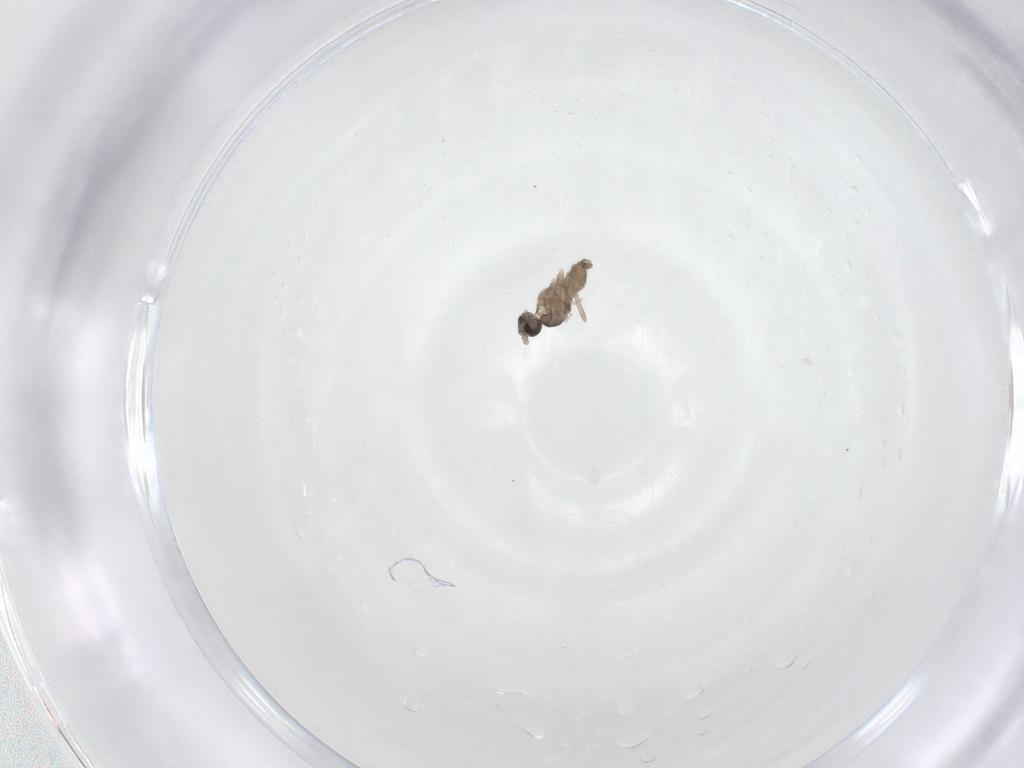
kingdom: Animalia
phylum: Arthropoda
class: Insecta
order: Diptera
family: Cecidomyiidae
